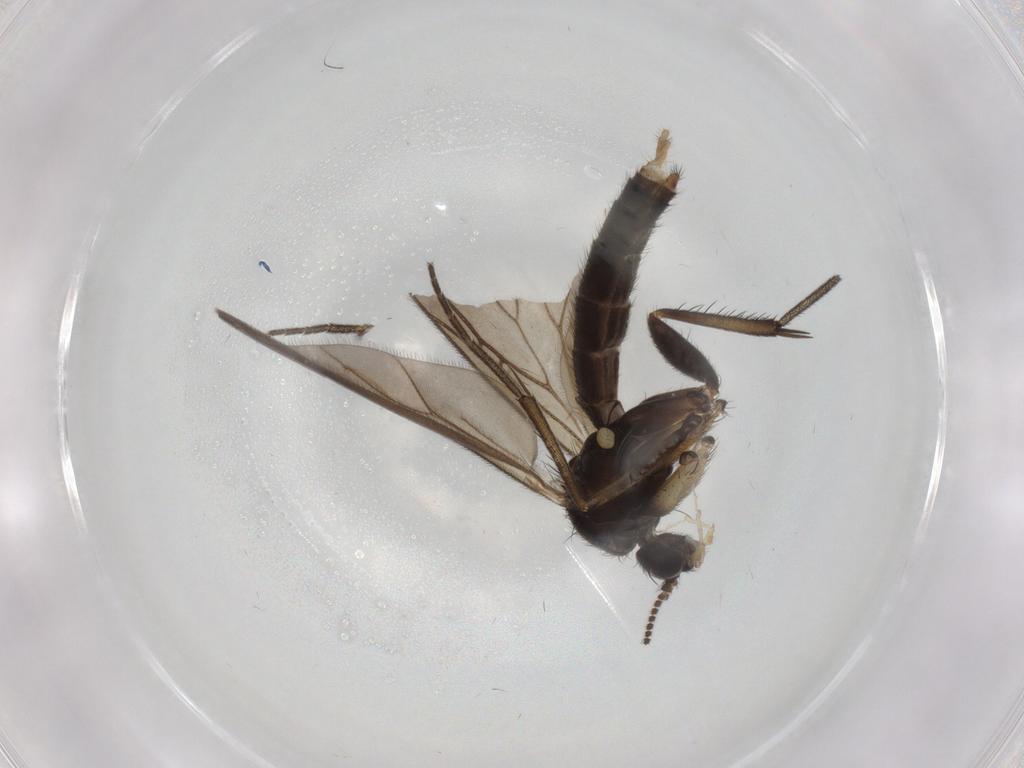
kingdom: Animalia
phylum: Arthropoda
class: Insecta
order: Diptera
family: Mycetophilidae
